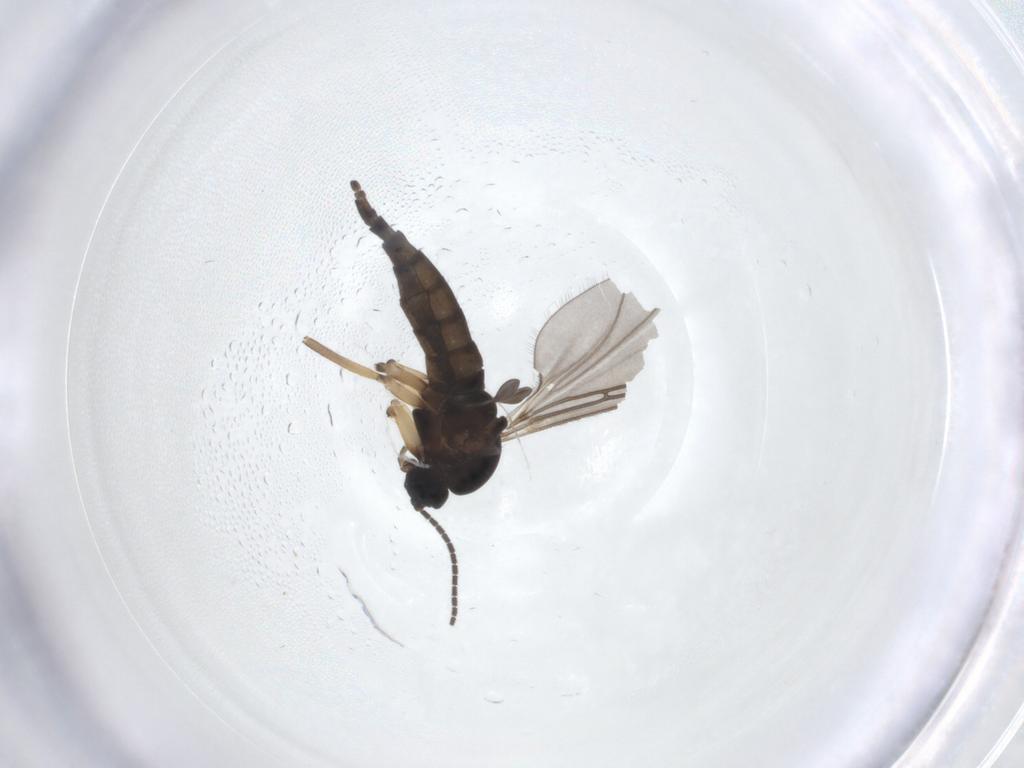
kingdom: Animalia
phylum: Arthropoda
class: Insecta
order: Diptera
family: Sciaridae
